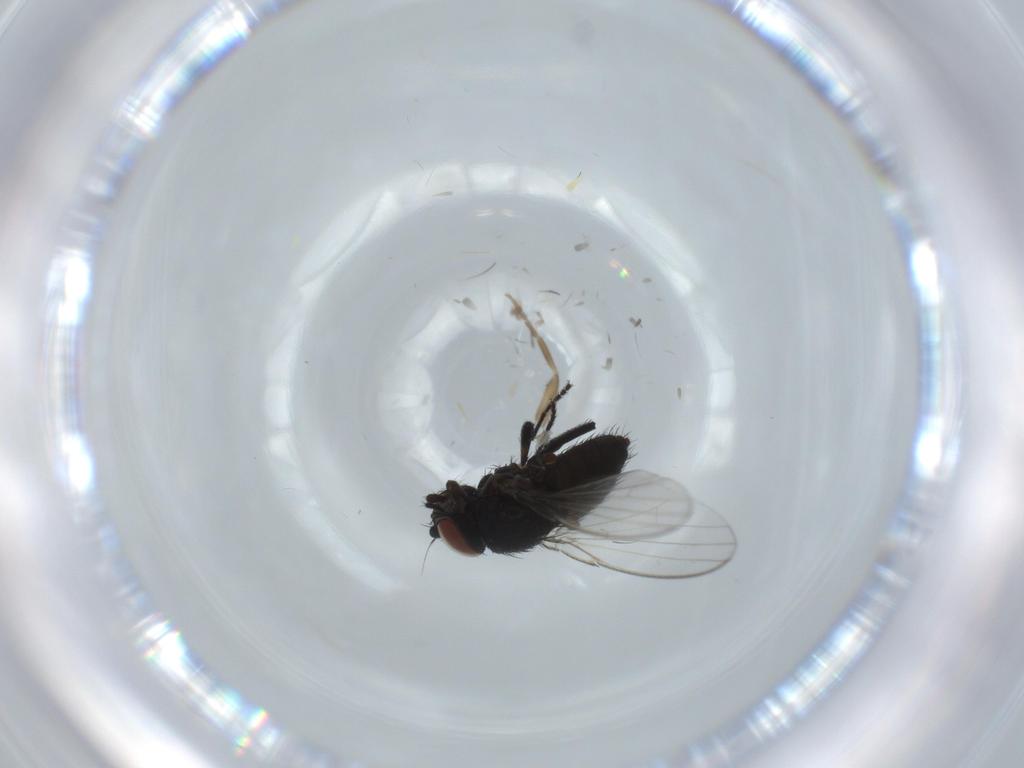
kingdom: Animalia
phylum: Arthropoda
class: Insecta
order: Diptera
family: Milichiidae
